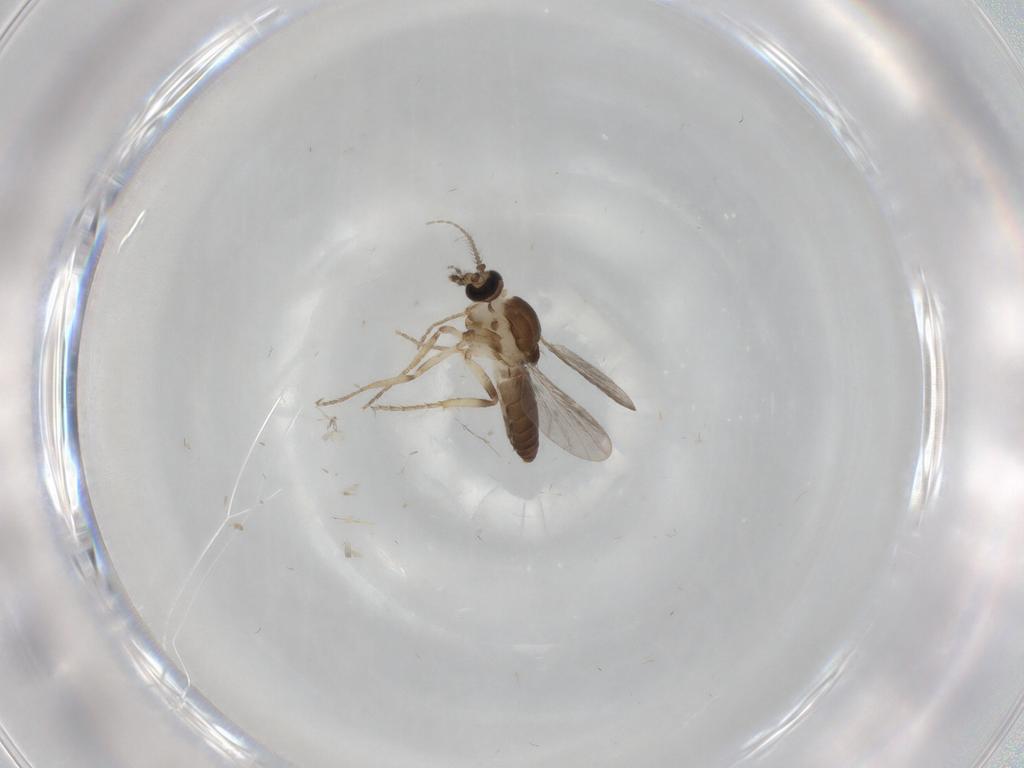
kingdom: Animalia
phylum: Arthropoda
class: Insecta
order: Diptera
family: Ceratopogonidae
